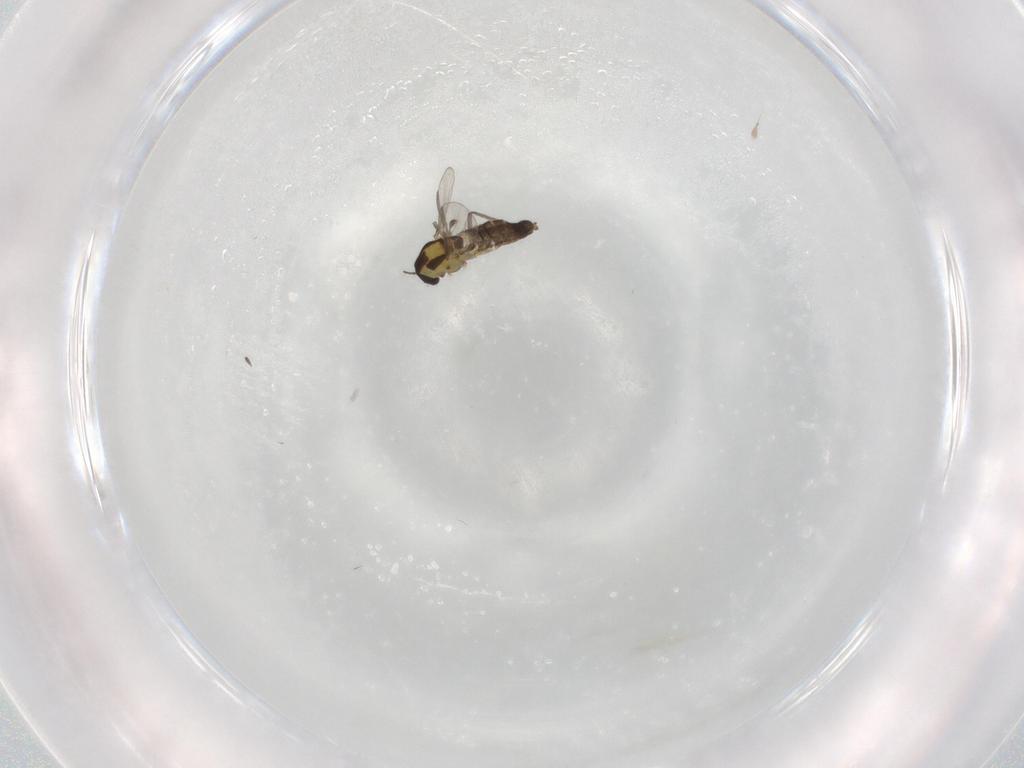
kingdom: Animalia
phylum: Arthropoda
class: Insecta
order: Diptera
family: Chironomidae
